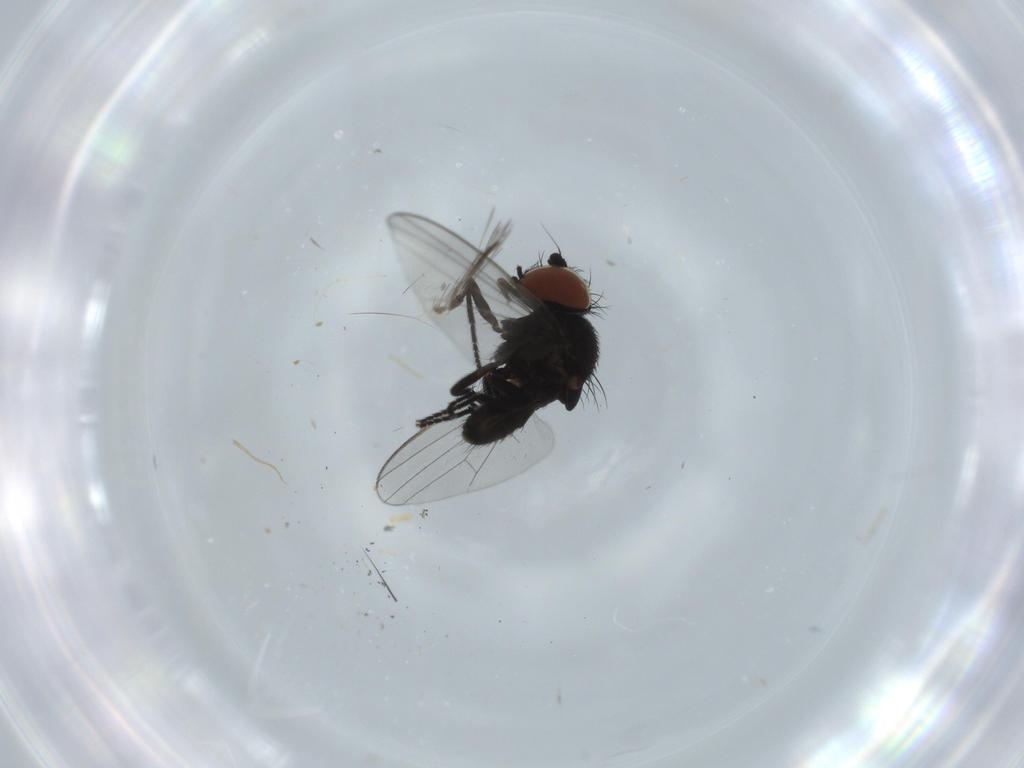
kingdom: Animalia
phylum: Arthropoda
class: Insecta
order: Diptera
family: Milichiidae
